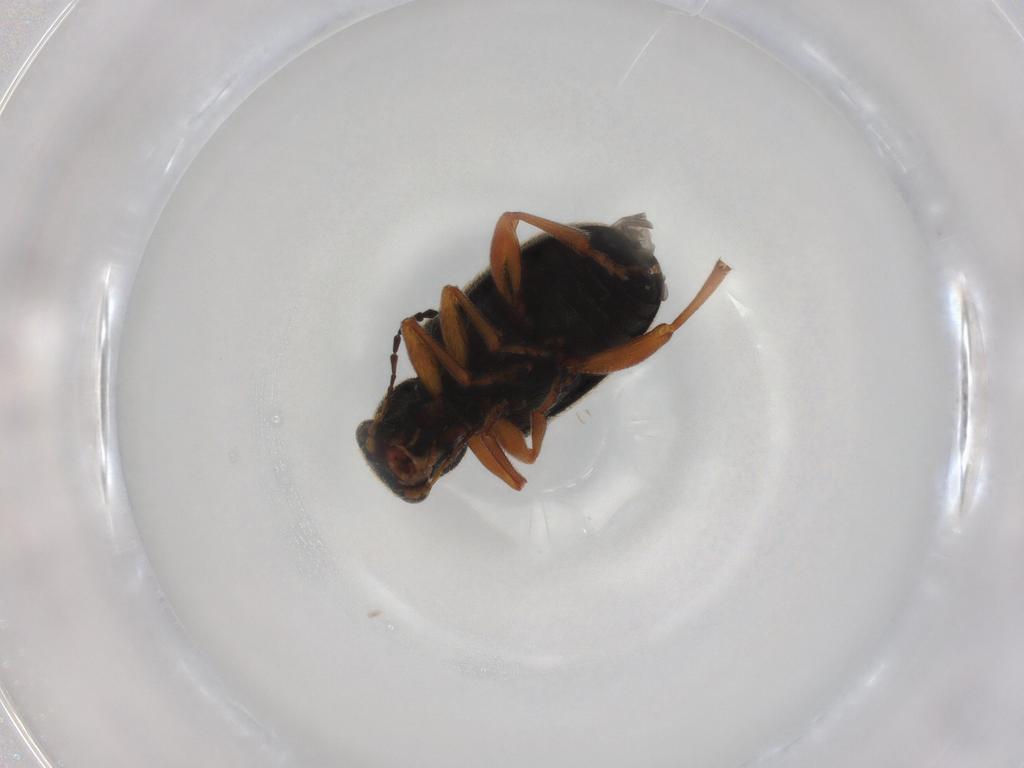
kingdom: Animalia
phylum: Arthropoda
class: Insecta
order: Coleoptera
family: Chrysomelidae
